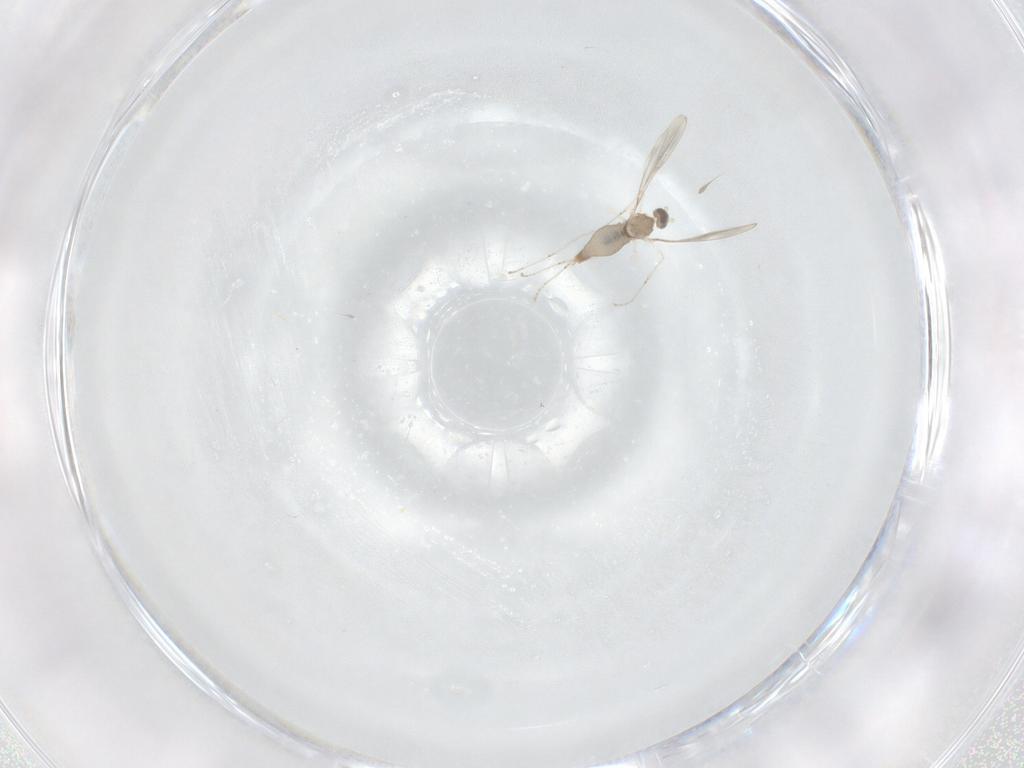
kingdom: Animalia
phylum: Arthropoda
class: Insecta
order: Diptera
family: Cecidomyiidae
